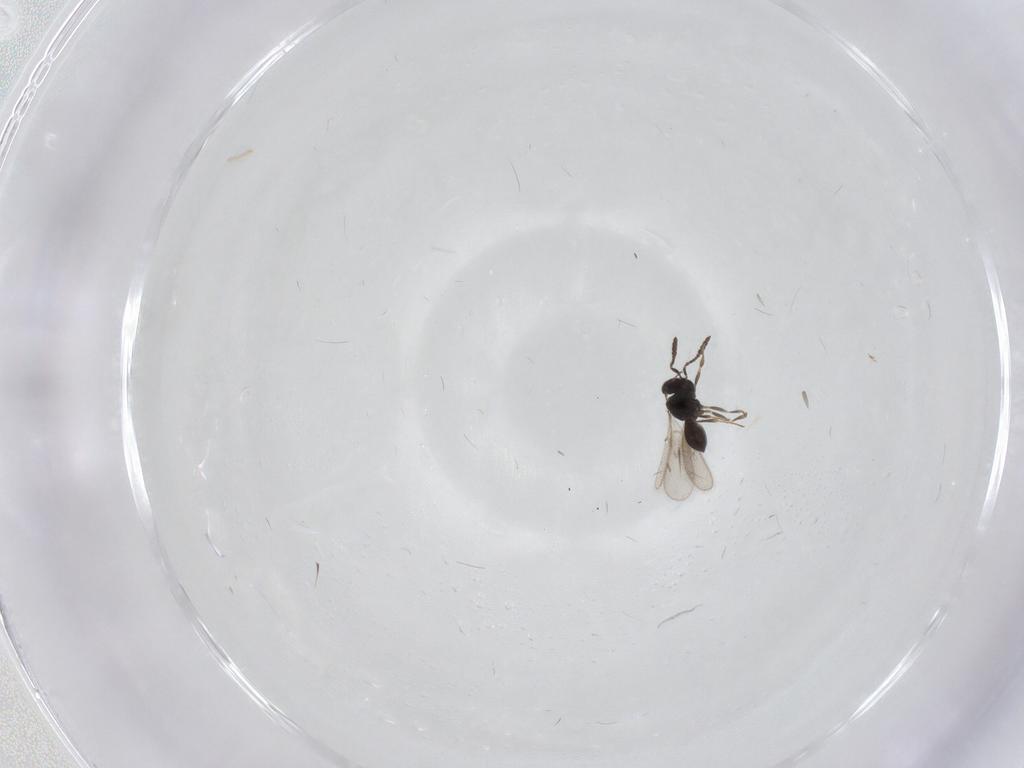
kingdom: Animalia
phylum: Arthropoda
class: Insecta
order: Hymenoptera
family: Scelionidae
